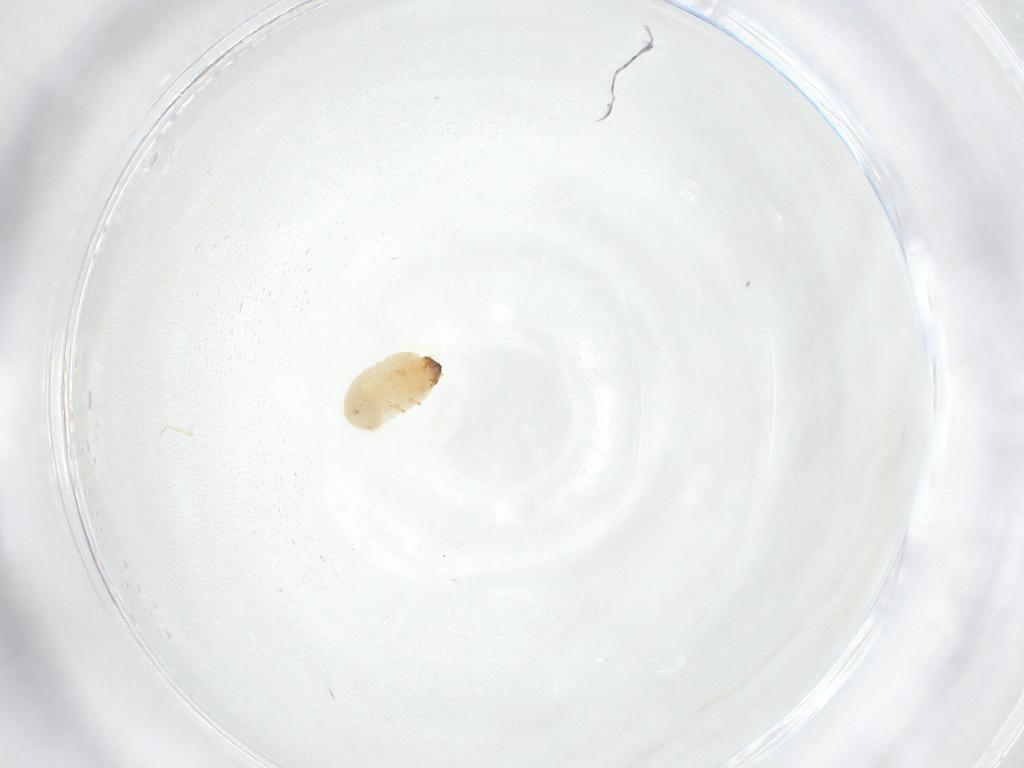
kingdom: Animalia
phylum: Arthropoda
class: Insecta
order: Coleoptera
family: Bostrichidae
